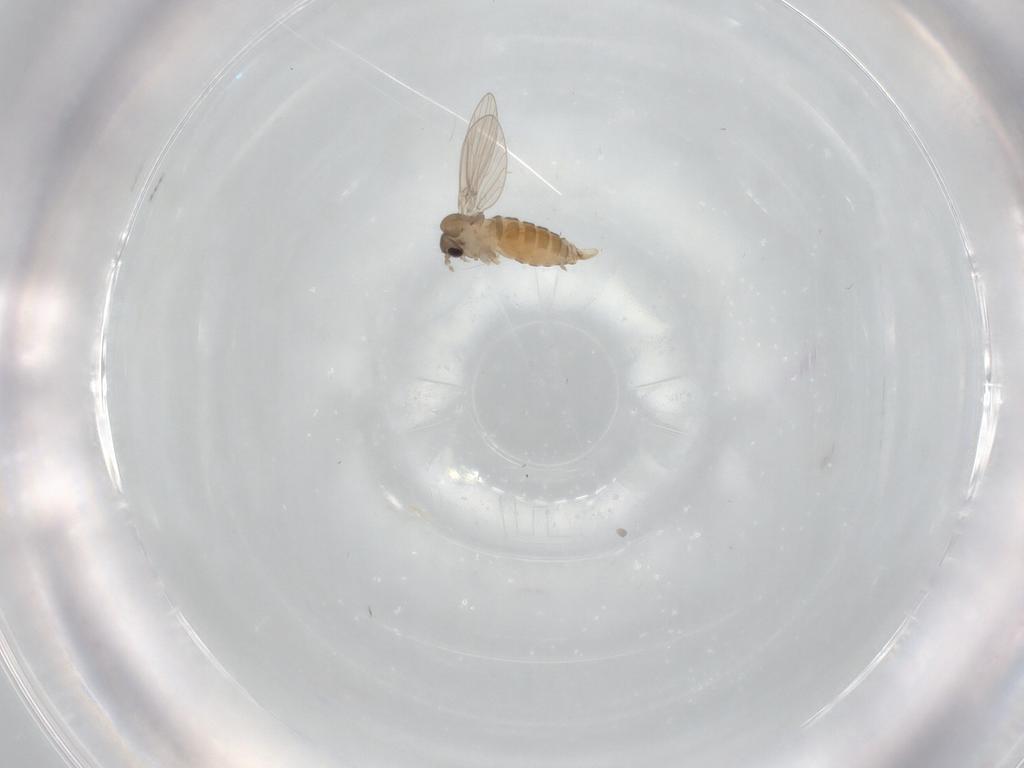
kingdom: Animalia
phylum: Arthropoda
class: Insecta
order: Diptera
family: Psychodidae
